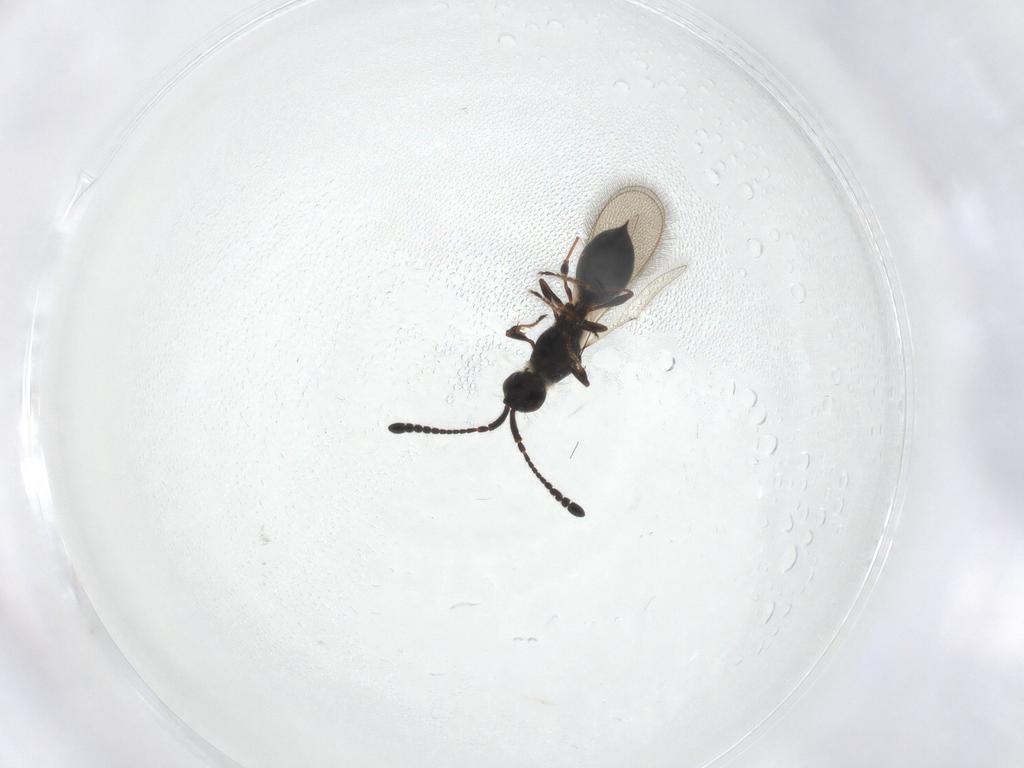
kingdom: Animalia
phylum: Arthropoda
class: Insecta
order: Hymenoptera
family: Diapriidae
